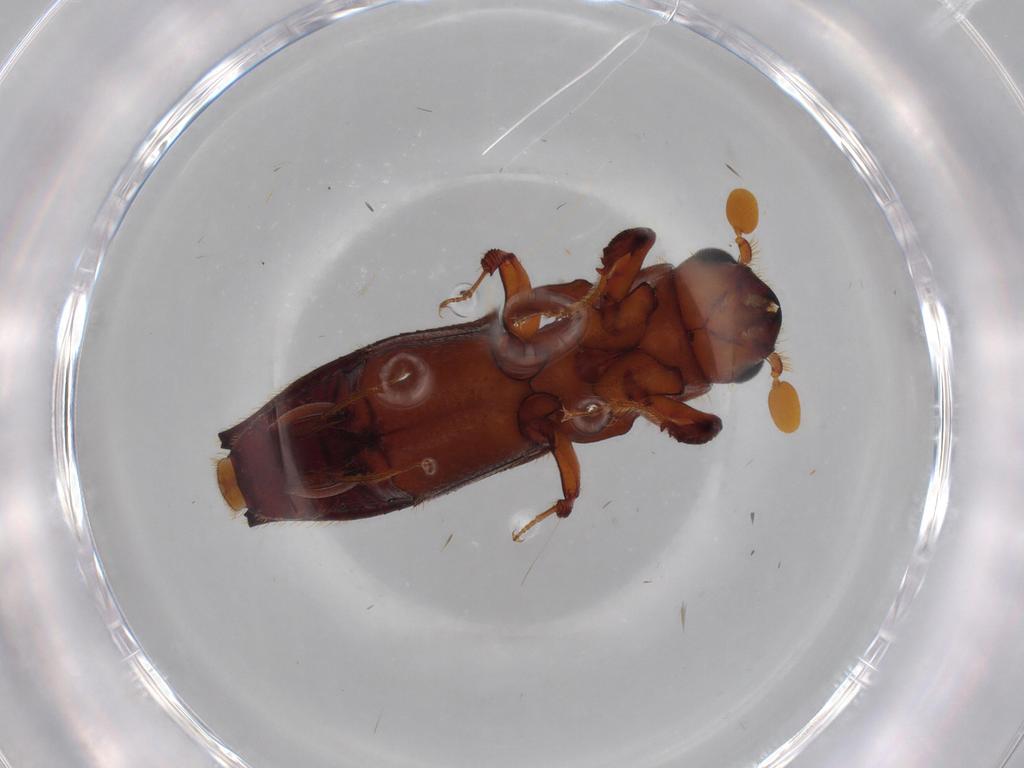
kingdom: Animalia
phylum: Arthropoda
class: Insecta
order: Coleoptera
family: Curculionidae
